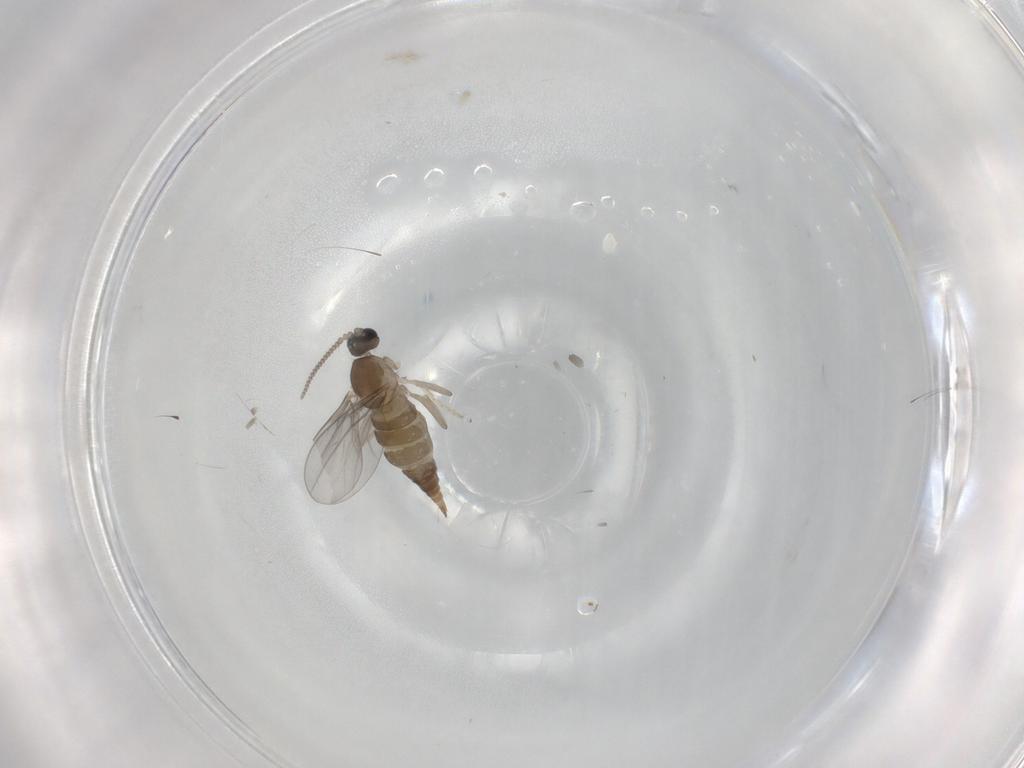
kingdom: Animalia
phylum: Arthropoda
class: Insecta
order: Diptera
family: Cecidomyiidae
